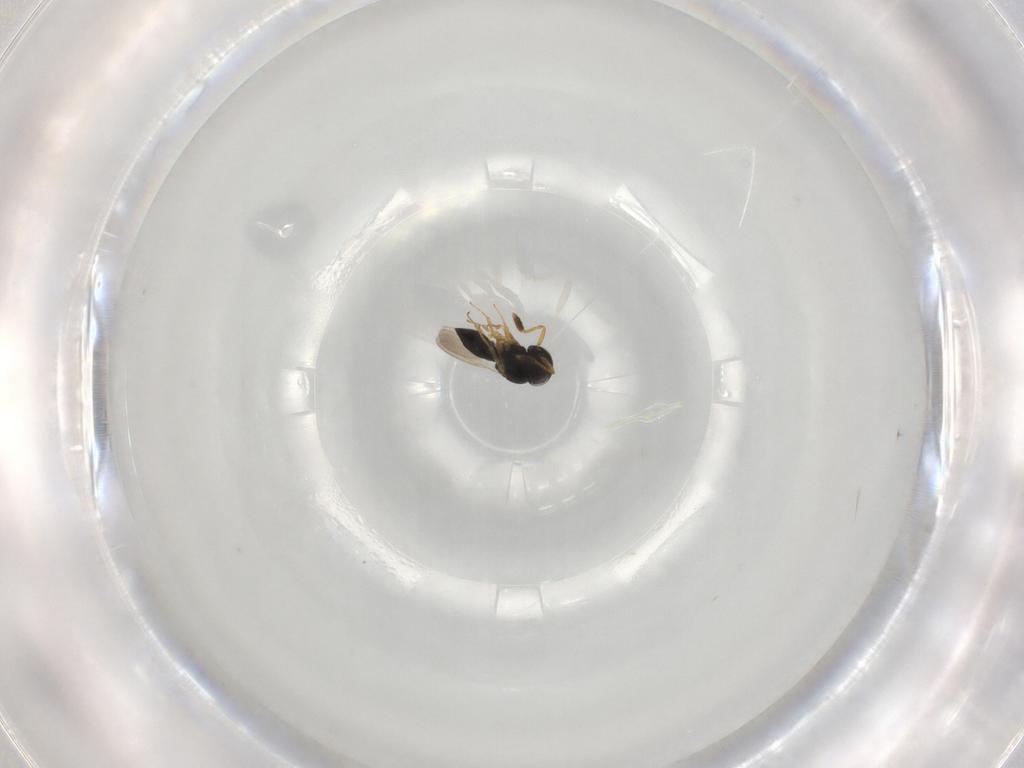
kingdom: Animalia
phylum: Arthropoda
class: Insecta
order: Hymenoptera
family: Scelionidae
